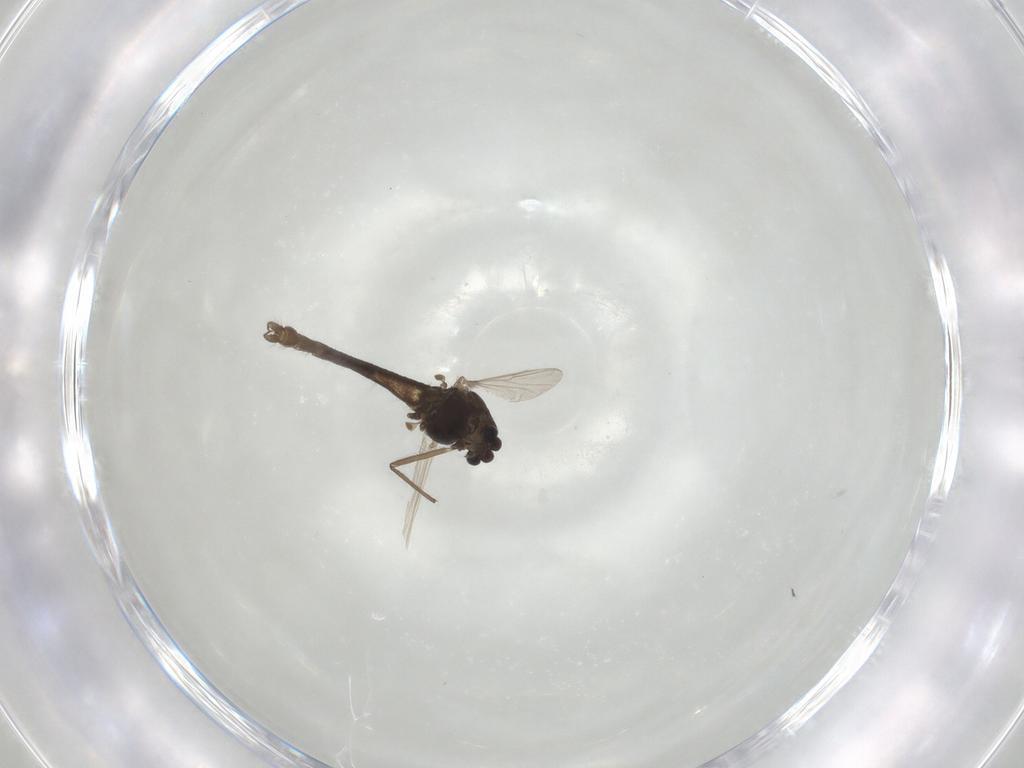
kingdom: Animalia
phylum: Arthropoda
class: Insecta
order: Diptera
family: Chironomidae
